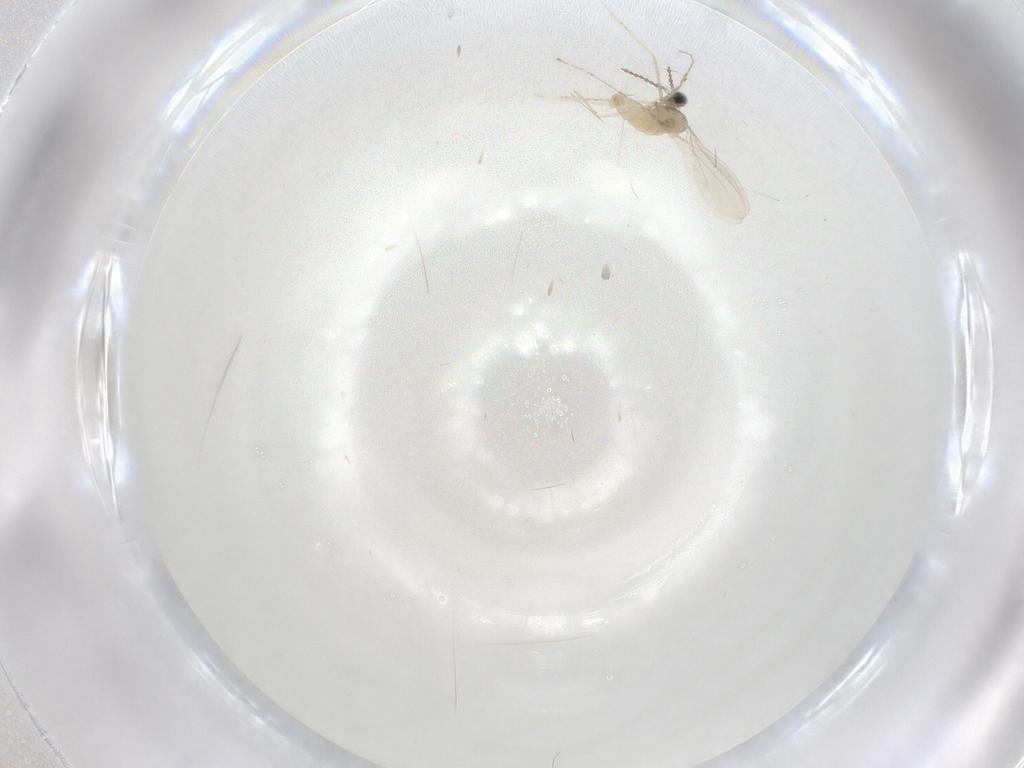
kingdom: Animalia
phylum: Arthropoda
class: Insecta
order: Diptera
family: Cecidomyiidae
